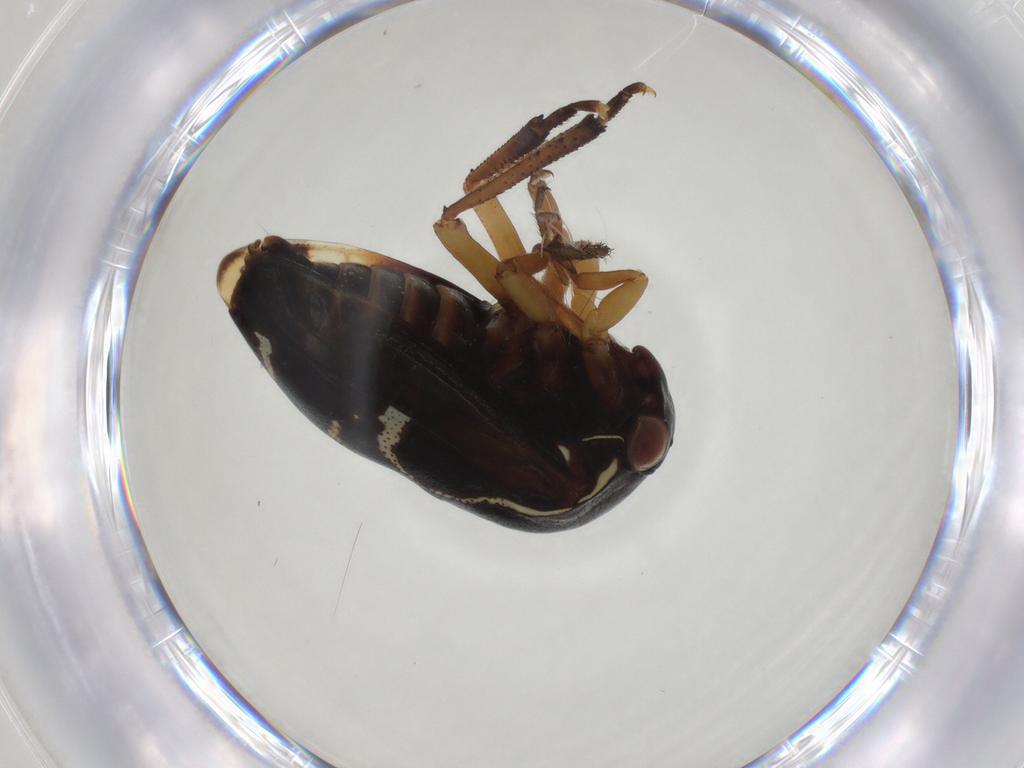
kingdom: Animalia
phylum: Arthropoda
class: Insecta
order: Hemiptera
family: Membracidae
